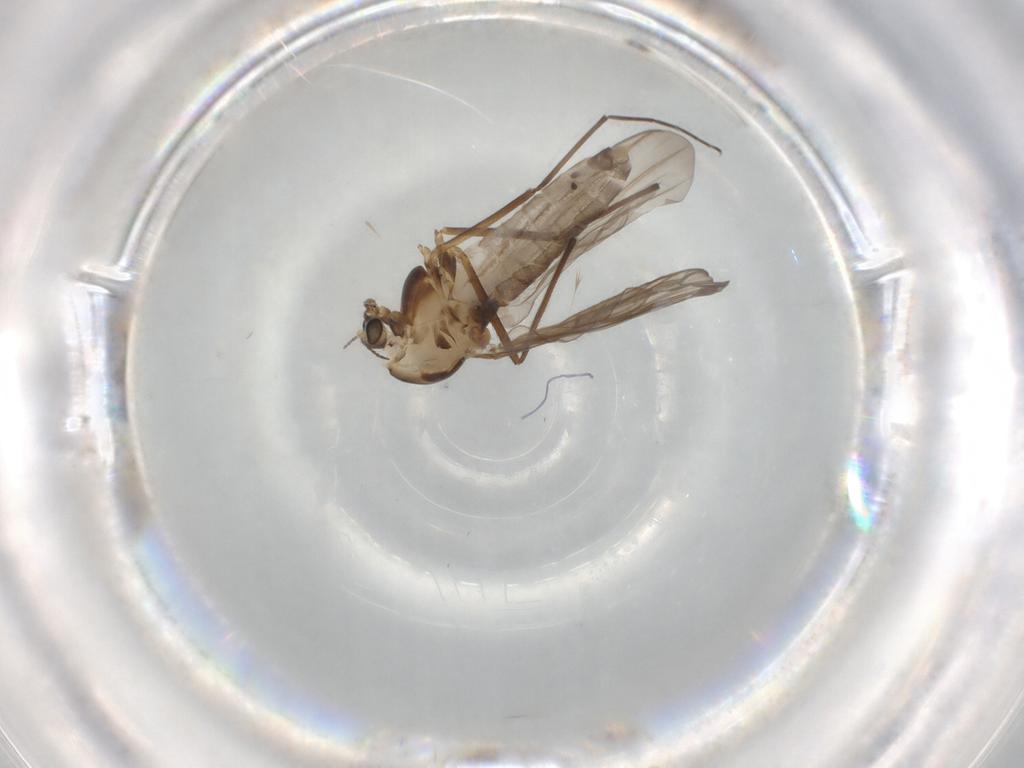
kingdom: Animalia
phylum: Arthropoda
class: Insecta
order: Diptera
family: Chironomidae
